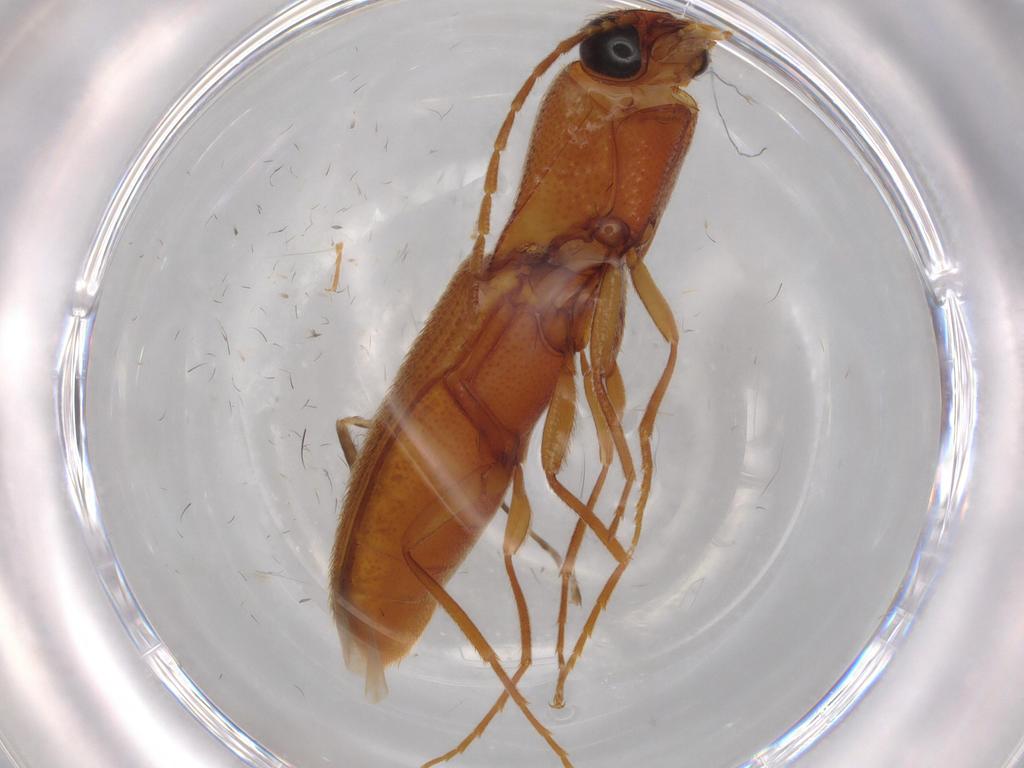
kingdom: Animalia
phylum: Arthropoda
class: Insecta
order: Coleoptera
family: Elateridae
